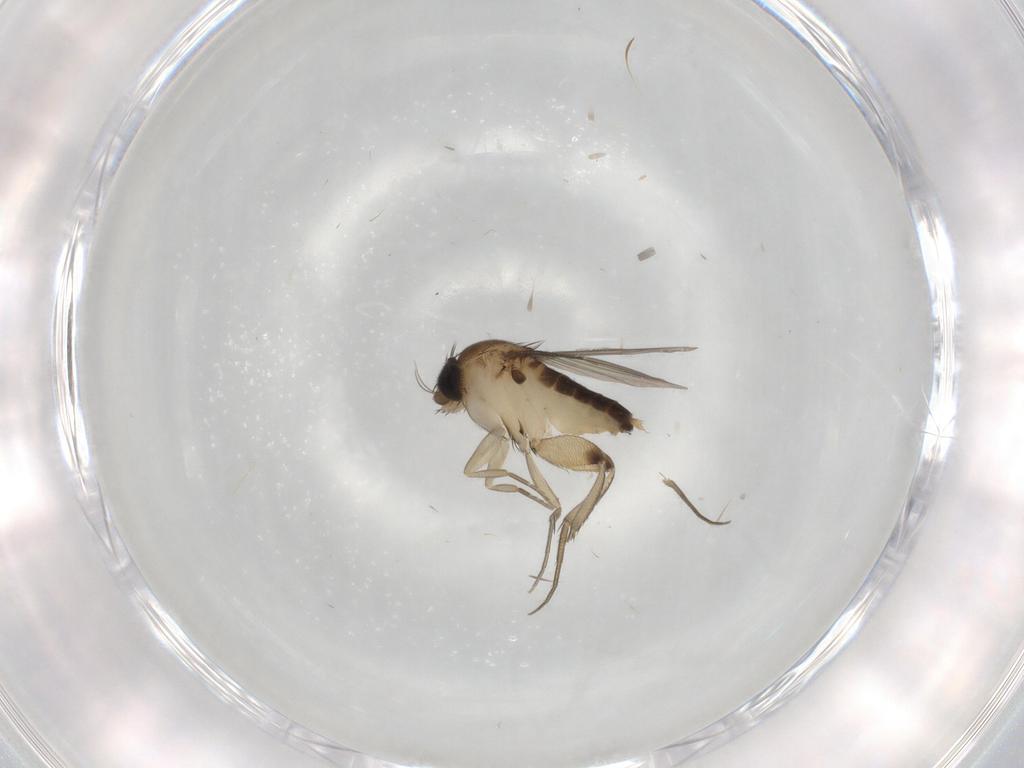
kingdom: Animalia
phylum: Arthropoda
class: Insecta
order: Diptera
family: Phoridae
